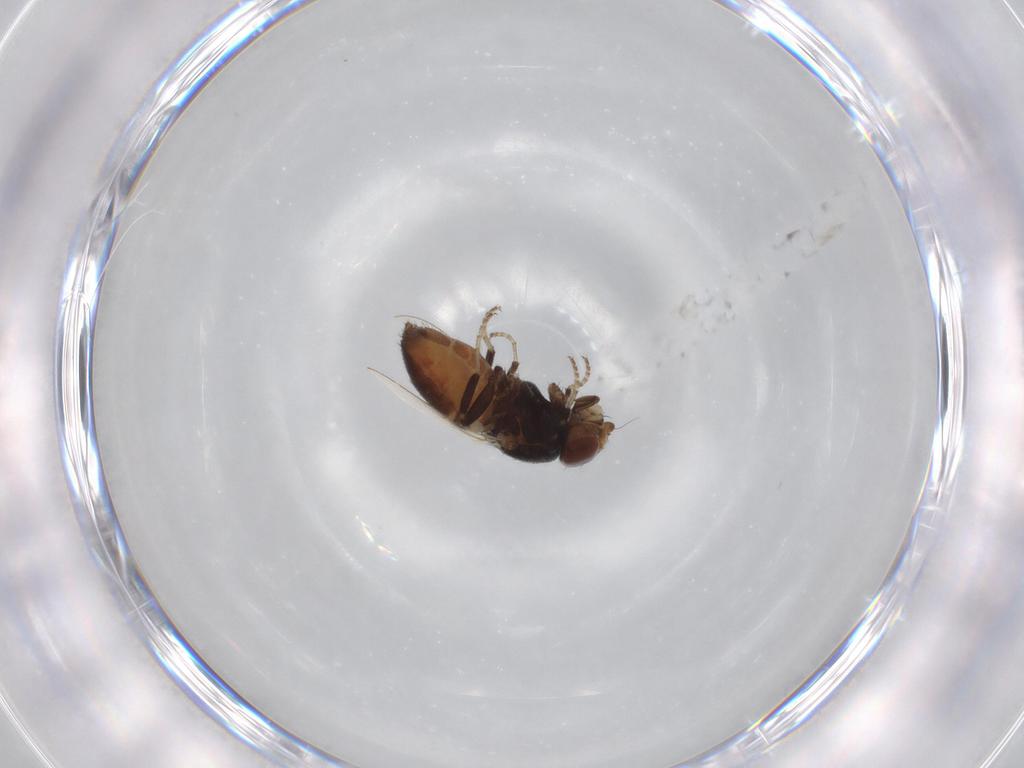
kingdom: Animalia
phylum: Arthropoda
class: Insecta
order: Diptera
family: Milichiidae
